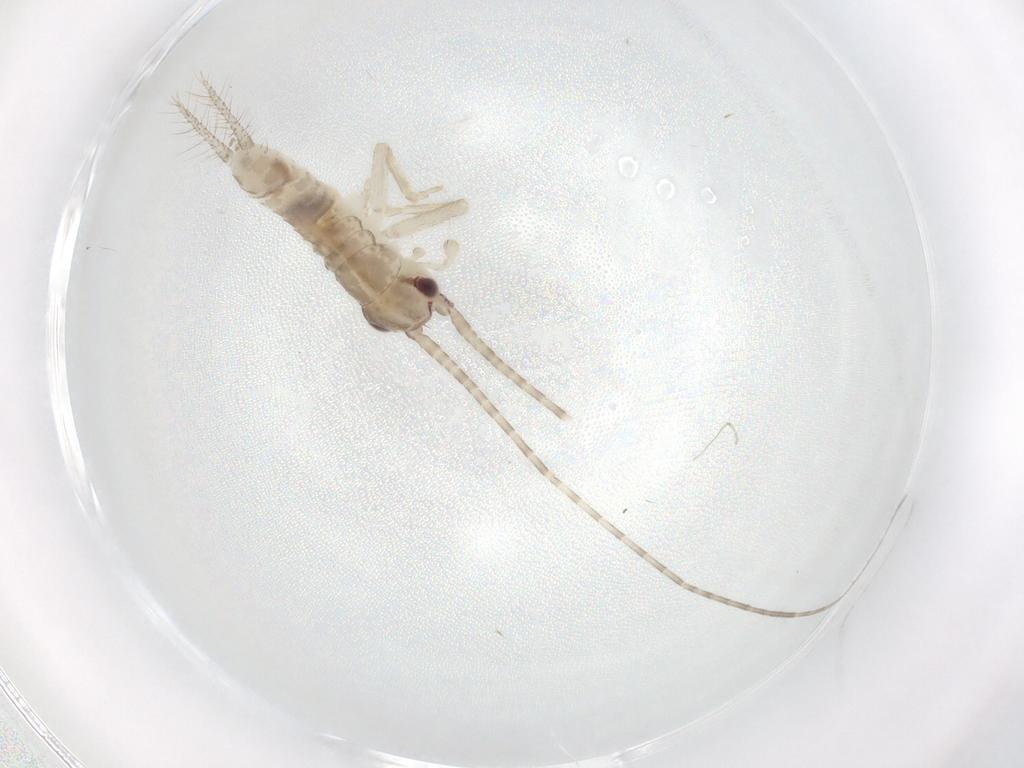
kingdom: Animalia
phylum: Arthropoda
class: Insecta
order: Orthoptera
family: Gryllidae
